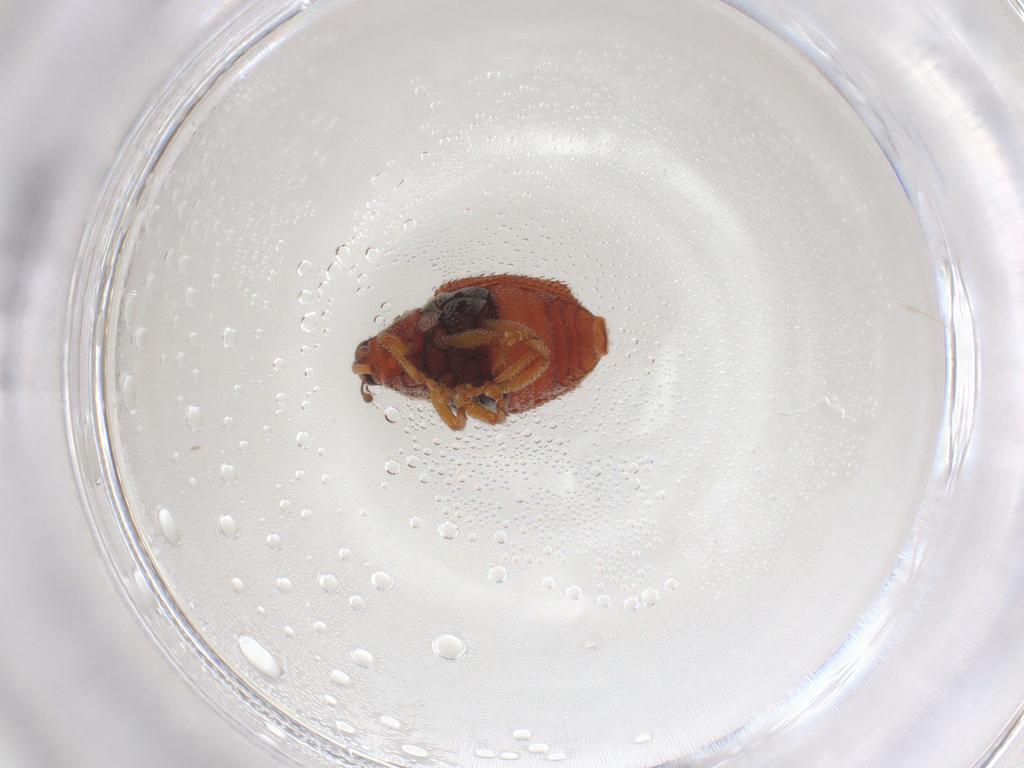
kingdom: Animalia
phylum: Arthropoda
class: Insecta
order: Coleoptera
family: Curculionidae
